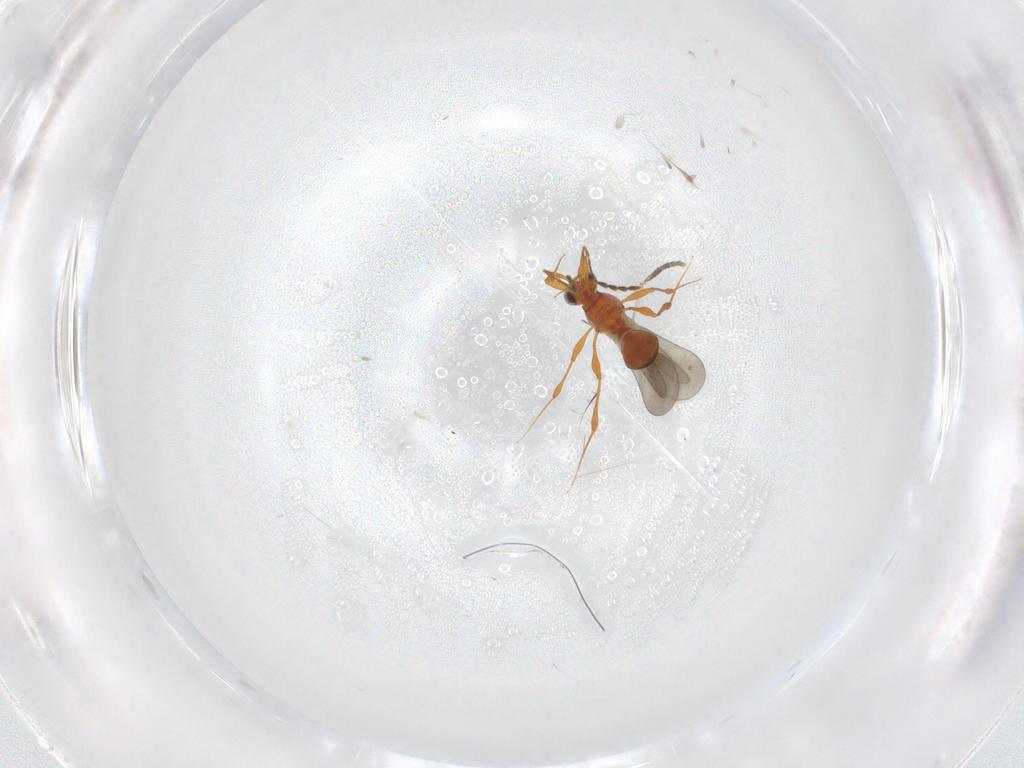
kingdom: Animalia
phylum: Arthropoda
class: Insecta
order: Hymenoptera
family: Platygastridae
